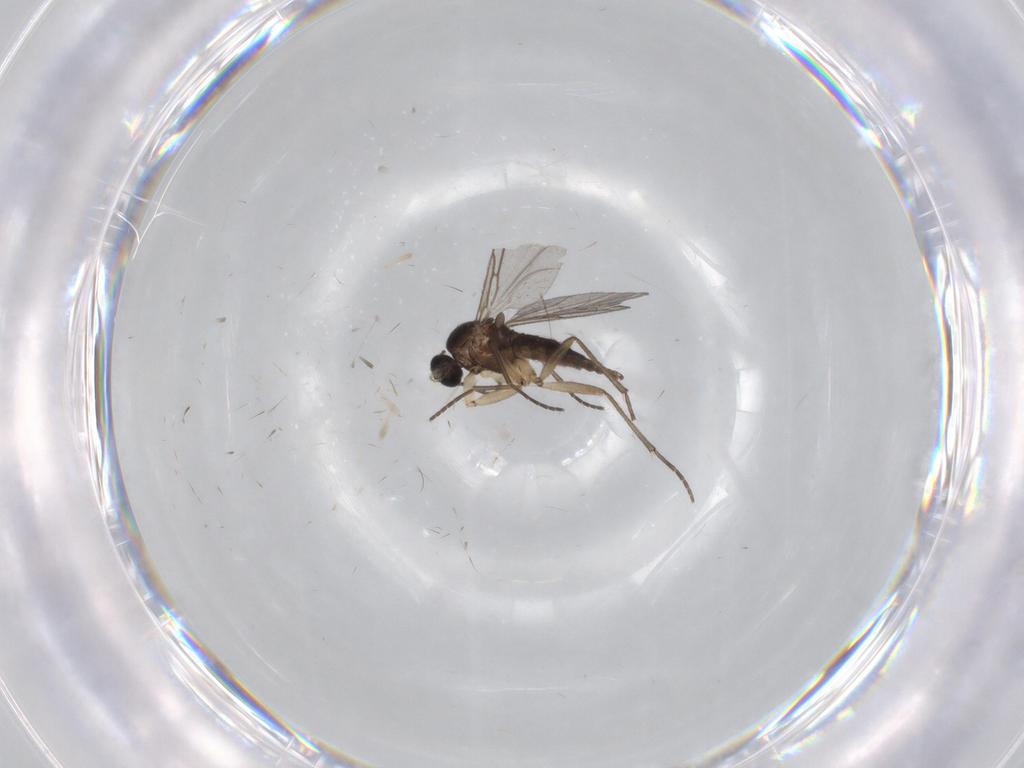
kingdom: Animalia
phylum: Arthropoda
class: Insecta
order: Diptera
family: Sciaridae
